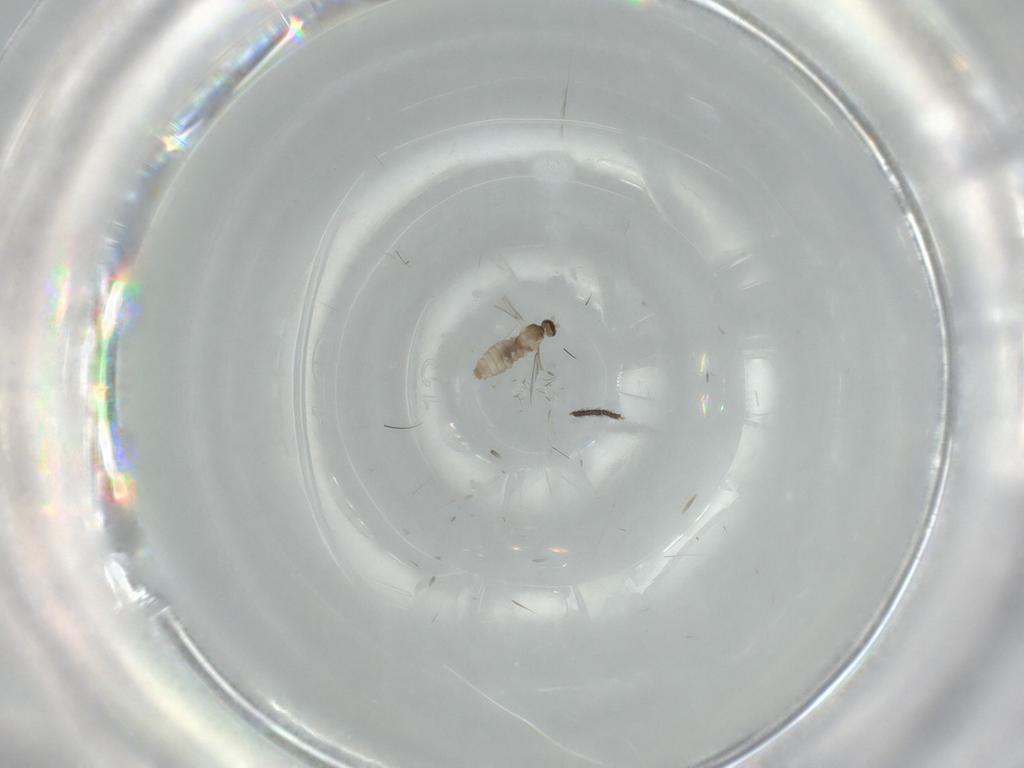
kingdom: Animalia
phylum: Arthropoda
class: Insecta
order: Diptera
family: Cecidomyiidae
